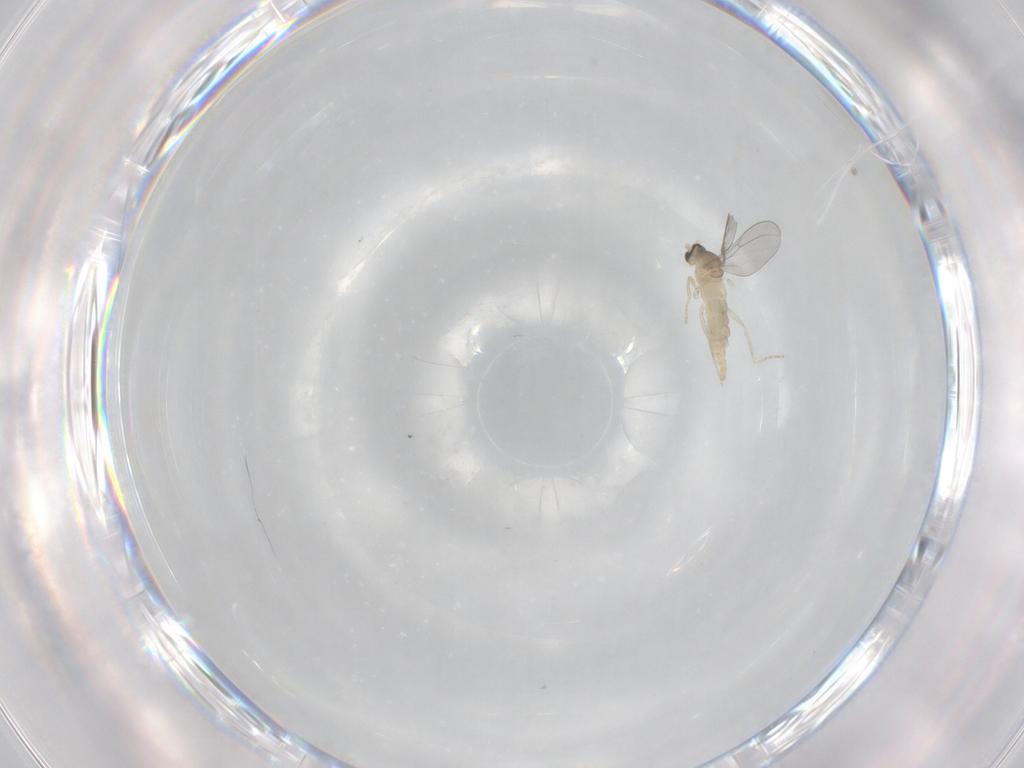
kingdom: Animalia
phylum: Arthropoda
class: Insecta
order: Diptera
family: Cecidomyiidae
